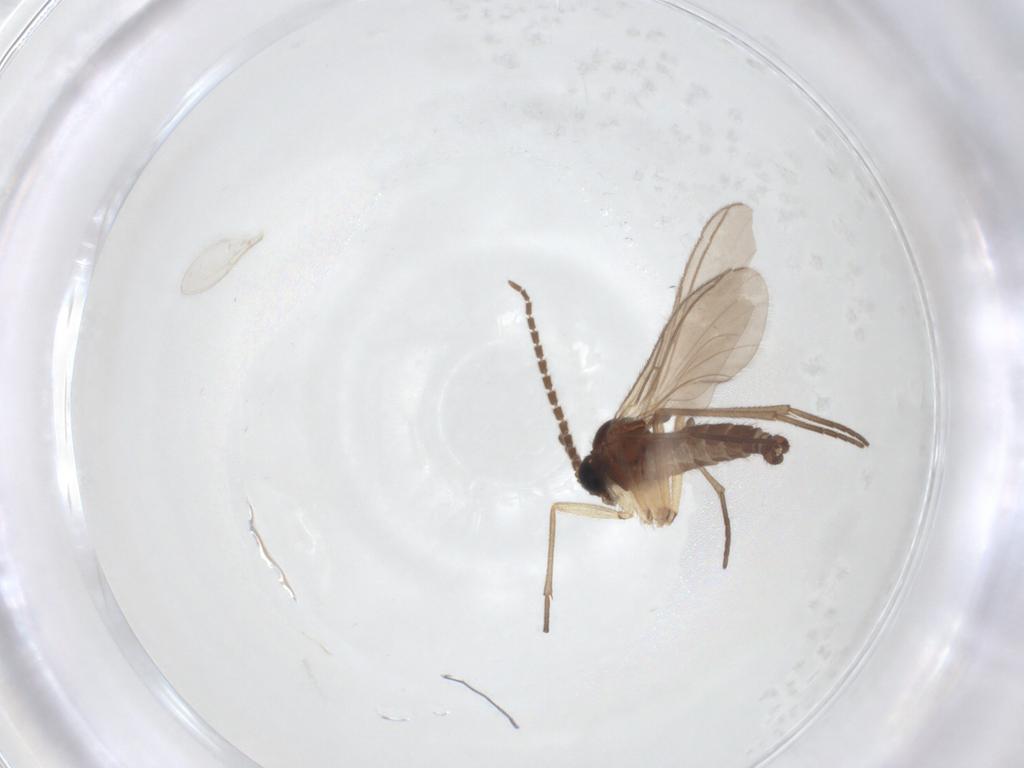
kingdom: Animalia
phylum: Arthropoda
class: Insecta
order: Diptera
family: Sciaridae
